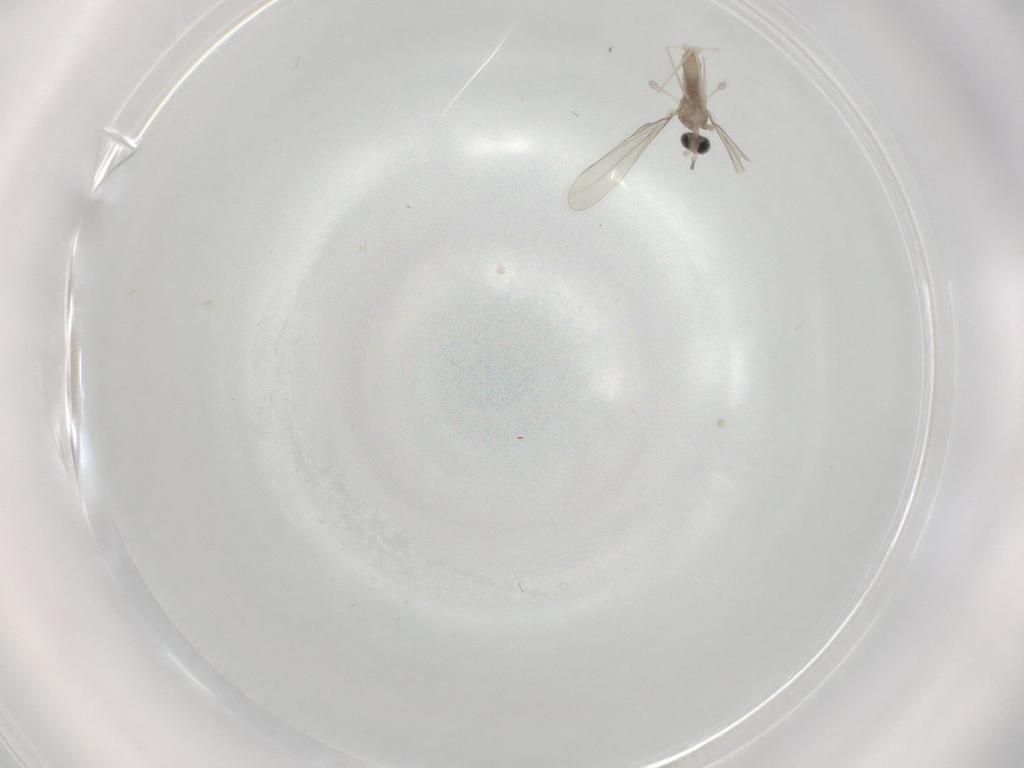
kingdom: Animalia
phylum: Arthropoda
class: Insecta
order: Diptera
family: Cecidomyiidae
